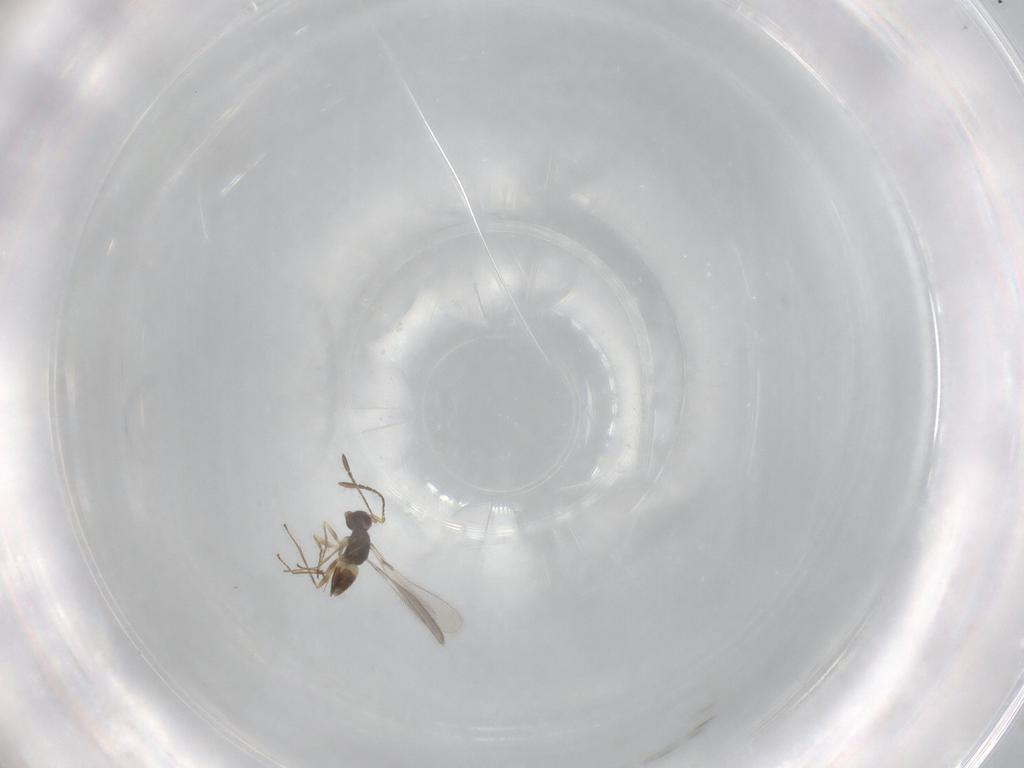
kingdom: Animalia
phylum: Arthropoda
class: Insecta
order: Hymenoptera
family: Mymaridae
